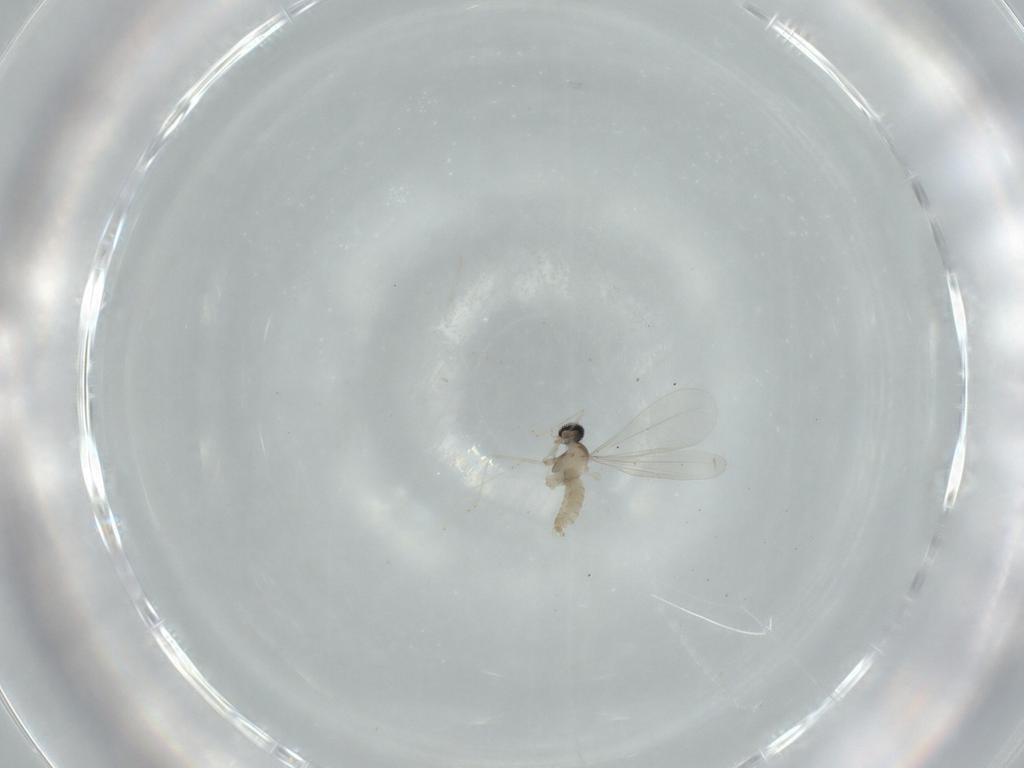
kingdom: Animalia
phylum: Arthropoda
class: Insecta
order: Diptera
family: Cecidomyiidae
